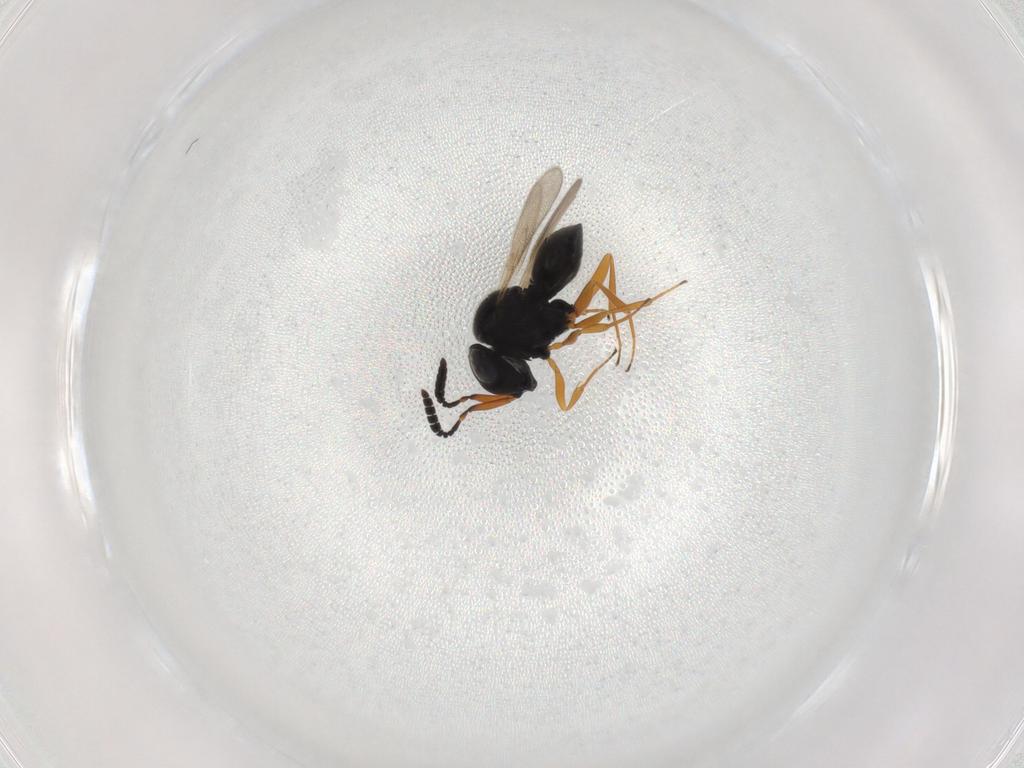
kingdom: Animalia
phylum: Arthropoda
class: Insecta
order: Hymenoptera
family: Scelionidae
